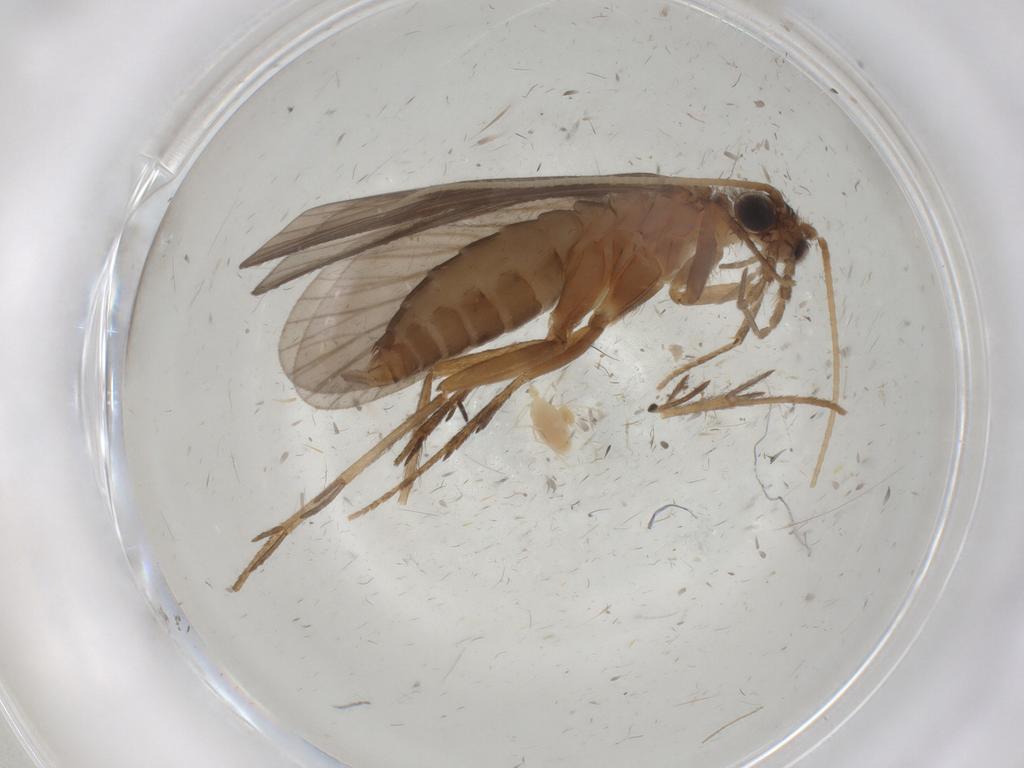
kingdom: Animalia
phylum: Arthropoda
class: Insecta
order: Trichoptera
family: Philopotamidae
